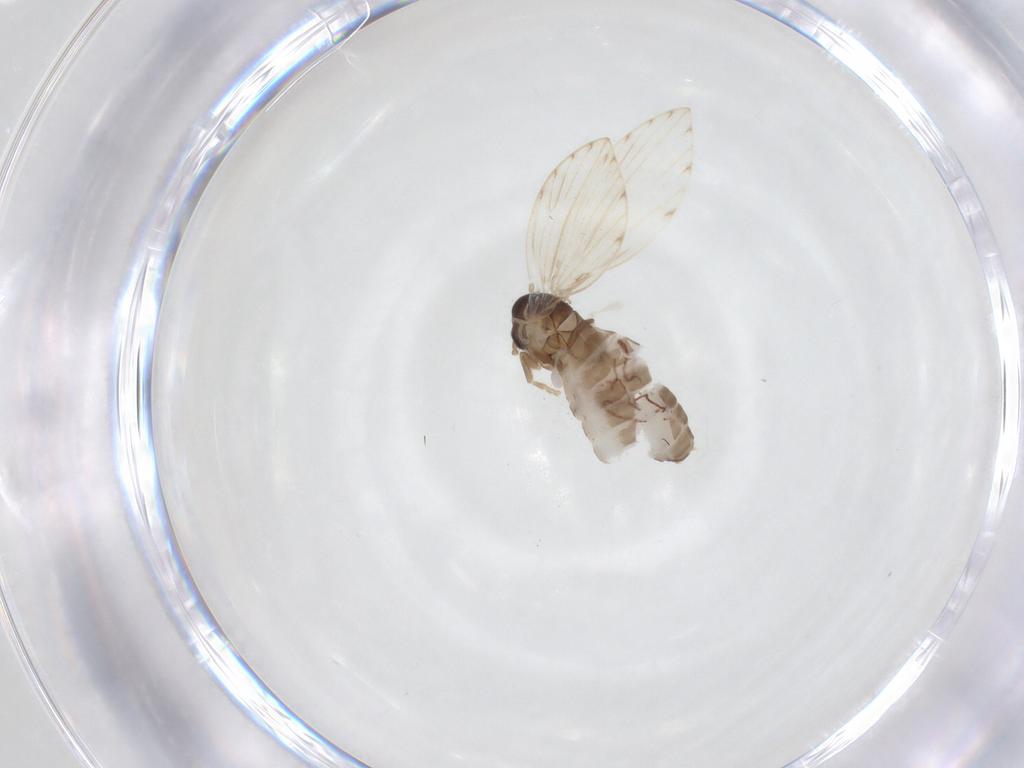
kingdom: Animalia
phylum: Arthropoda
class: Insecta
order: Diptera
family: Psychodidae
